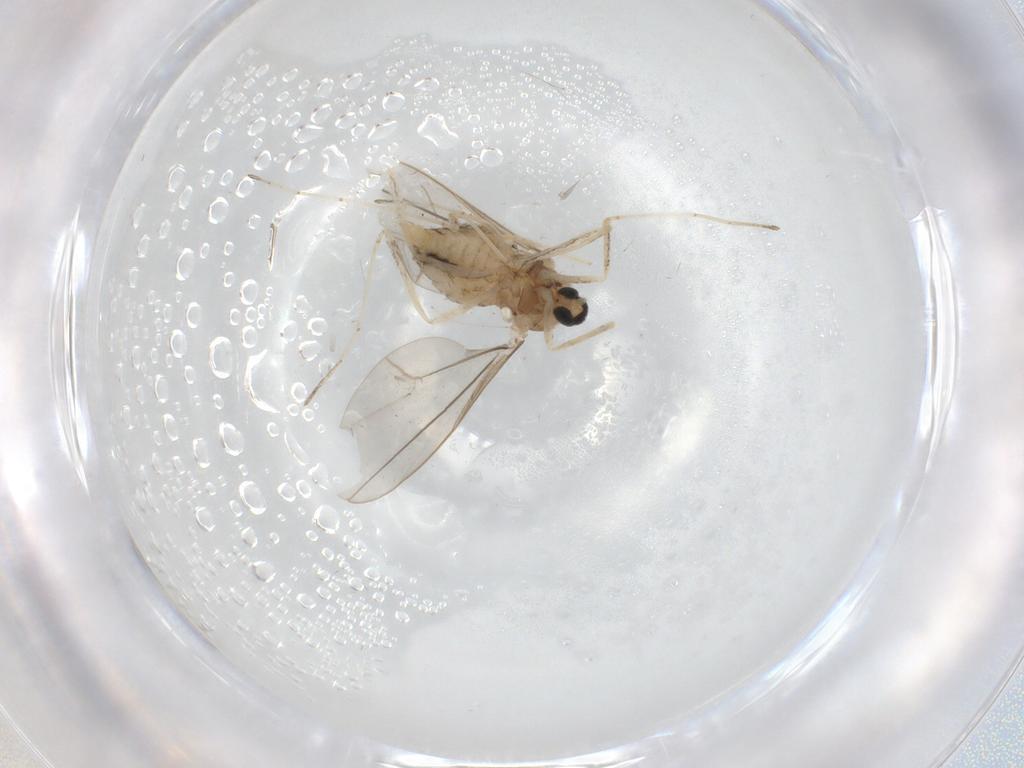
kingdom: Animalia
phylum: Arthropoda
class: Insecta
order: Diptera
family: Cecidomyiidae
